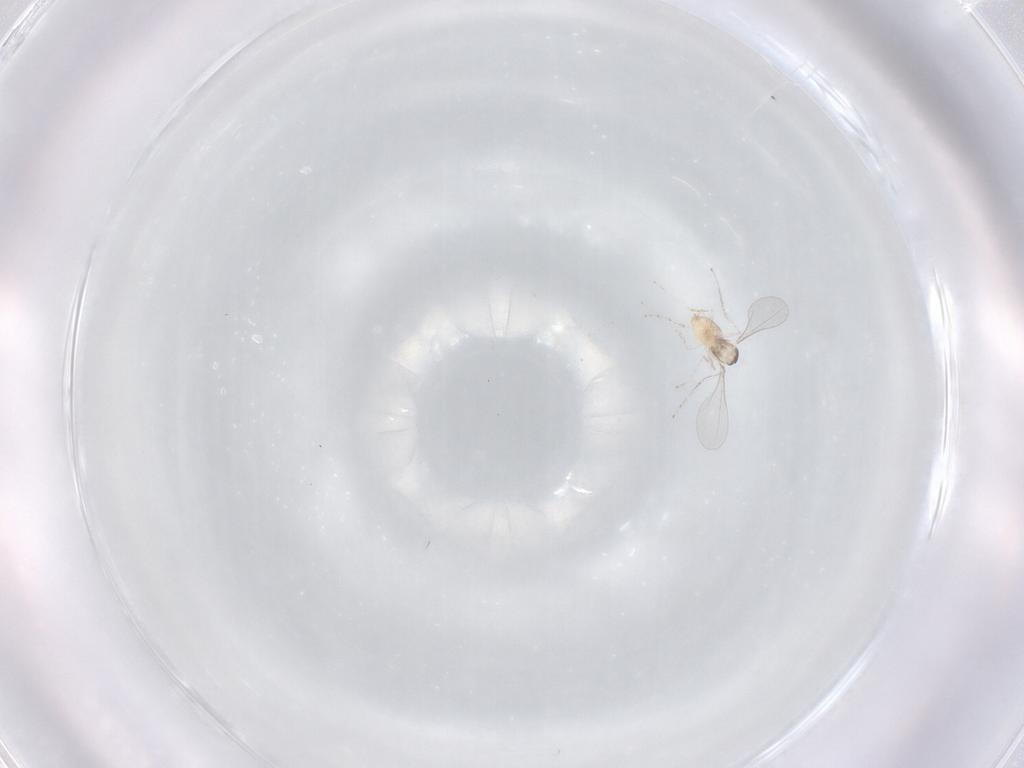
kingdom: Animalia
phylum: Arthropoda
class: Insecta
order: Diptera
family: Cecidomyiidae
